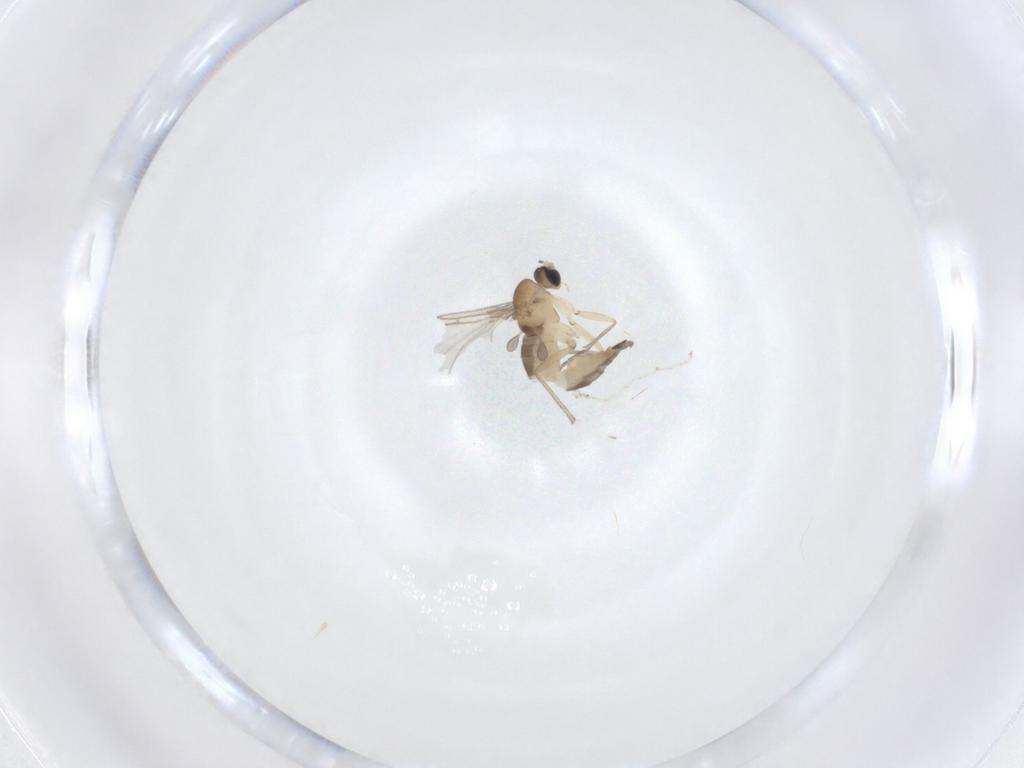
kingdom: Animalia
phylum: Arthropoda
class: Insecta
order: Diptera
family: Sciaridae
